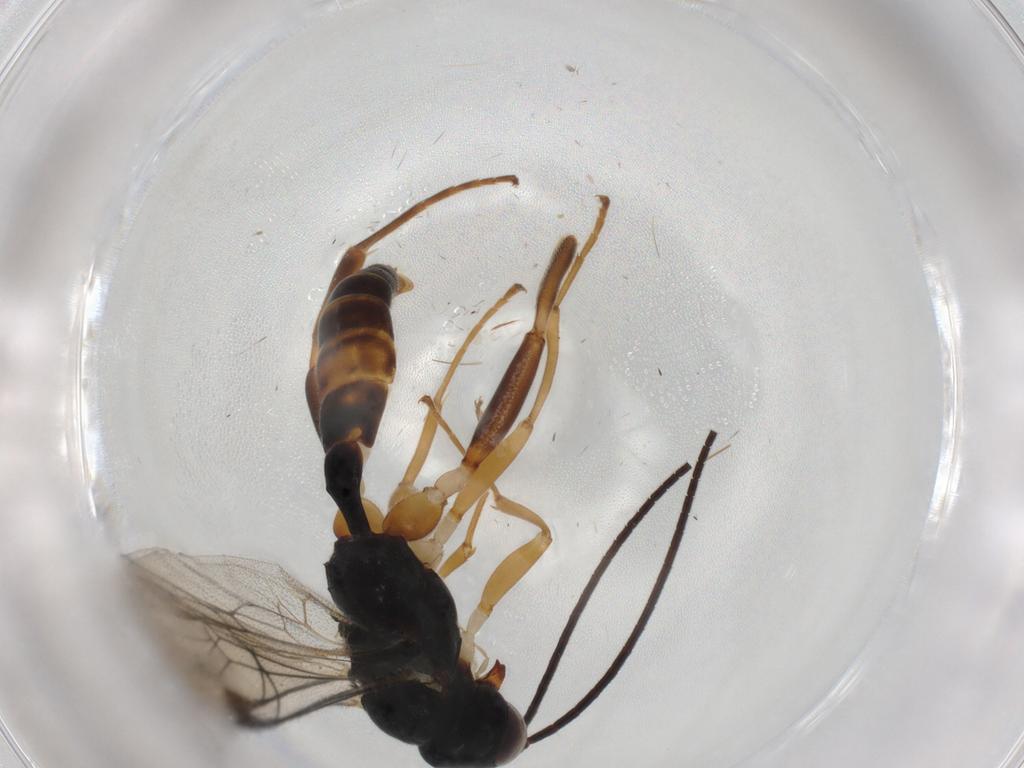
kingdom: Animalia
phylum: Arthropoda
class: Insecta
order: Hymenoptera
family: Ichneumonidae
